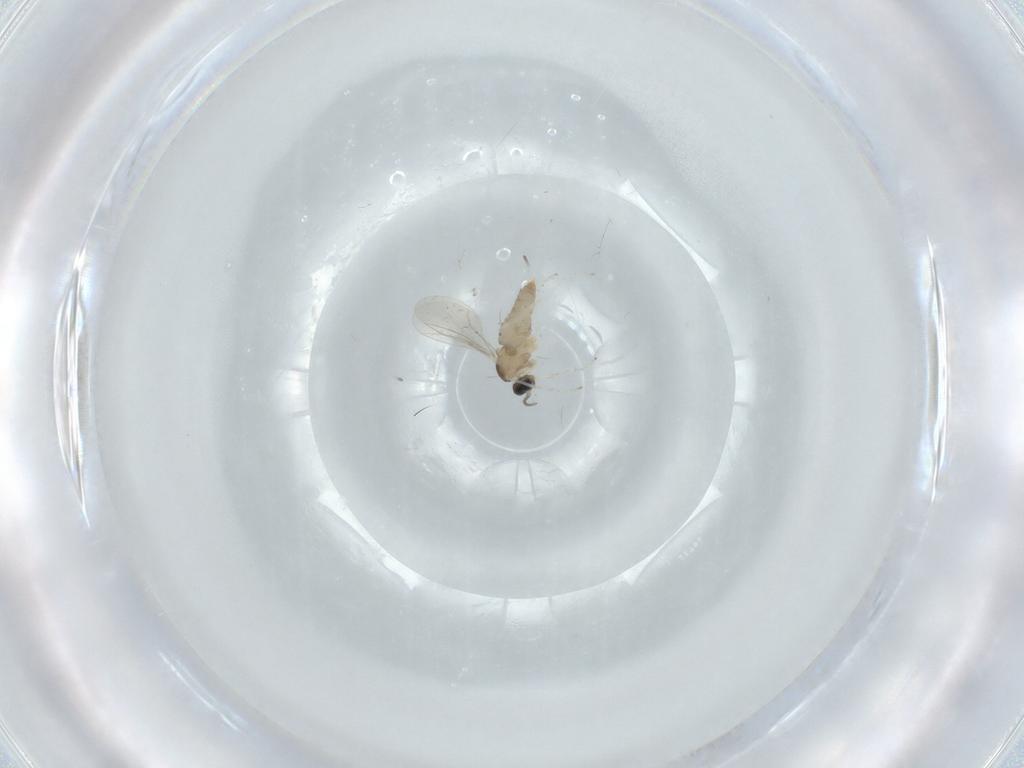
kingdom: Animalia
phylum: Arthropoda
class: Insecta
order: Diptera
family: Cecidomyiidae
